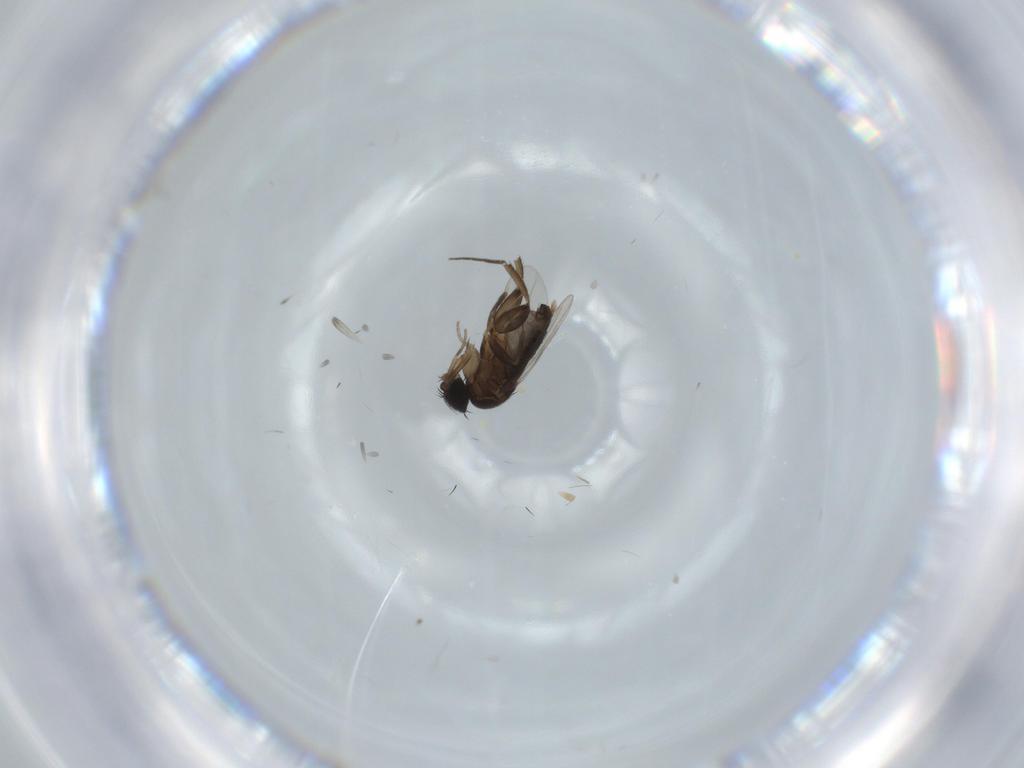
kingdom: Animalia
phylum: Arthropoda
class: Insecta
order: Diptera
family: Phoridae
